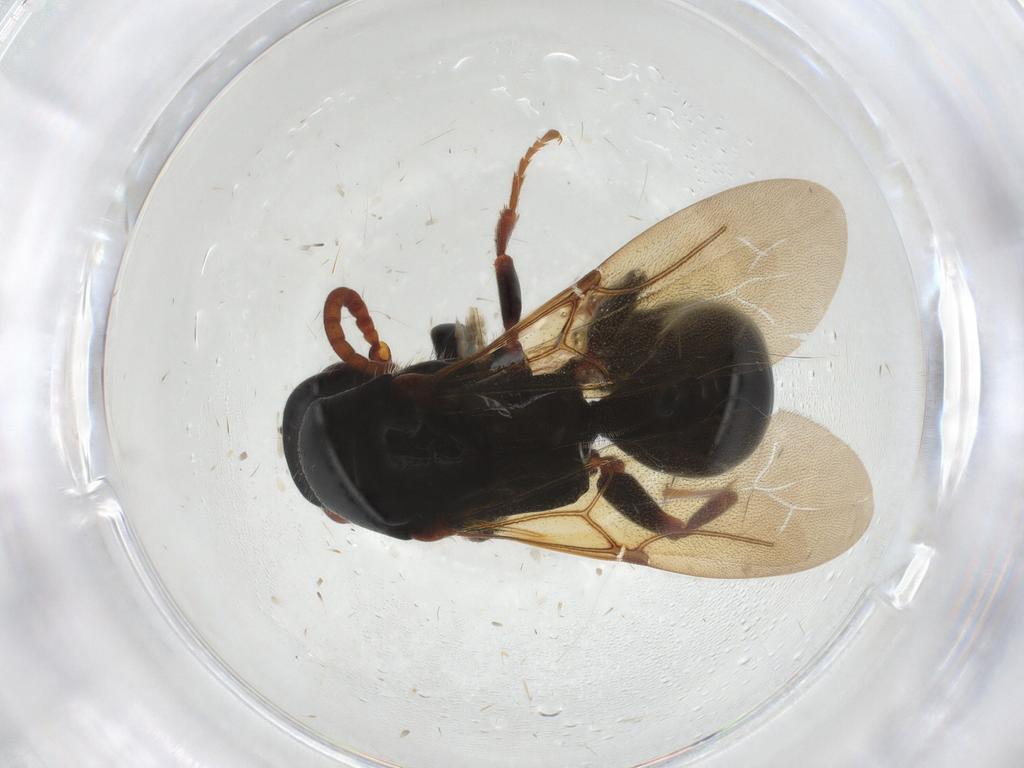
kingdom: Animalia
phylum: Arthropoda
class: Insecta
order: Hymenoptera
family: Bethylidae
